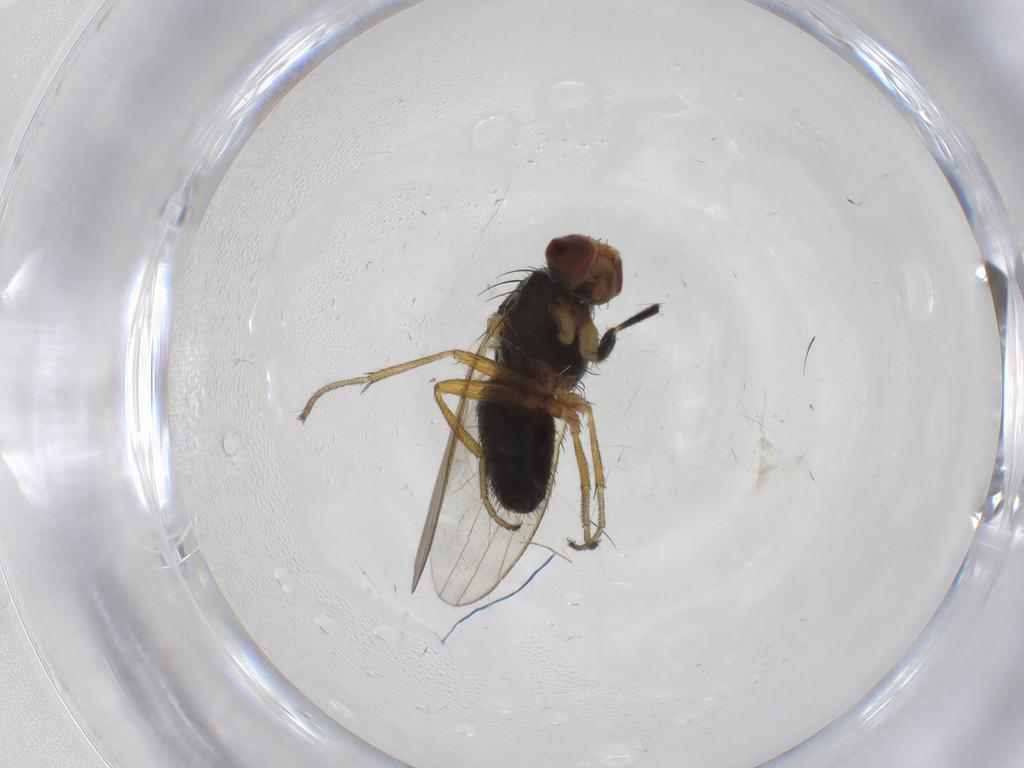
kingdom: Animalia
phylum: Arthropoda
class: Insecta
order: Diptera
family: Heleomyzidae
